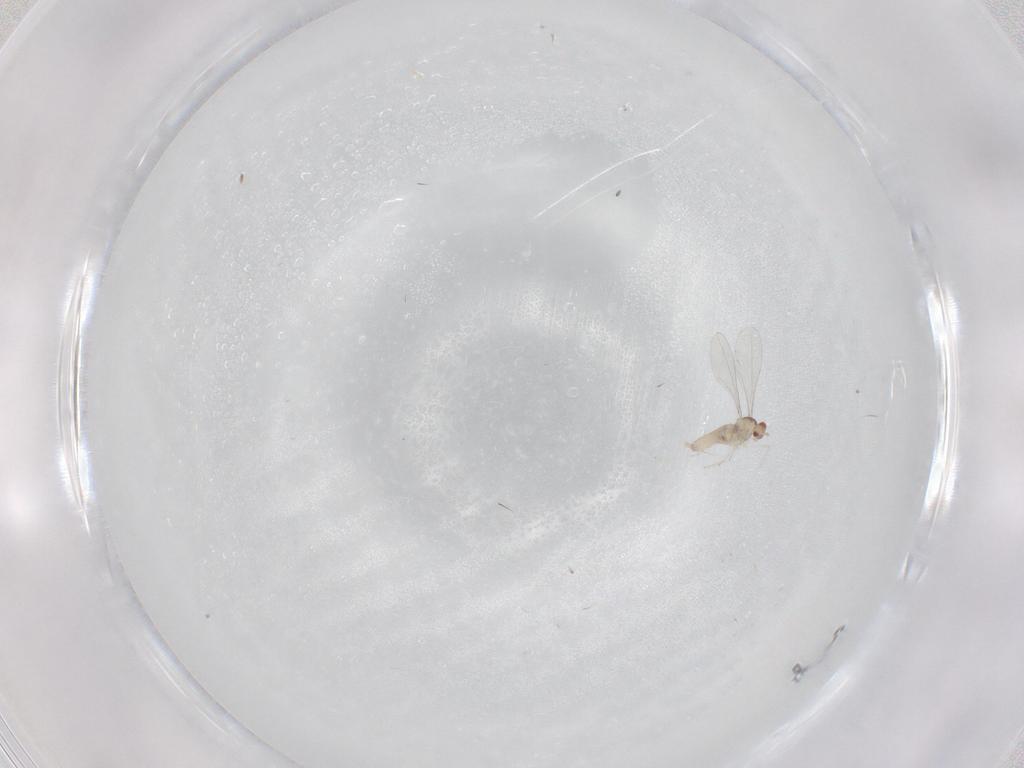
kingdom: Animalia
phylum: Arthropoda
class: Insecta
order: Diptera
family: Cecidomyiidae
